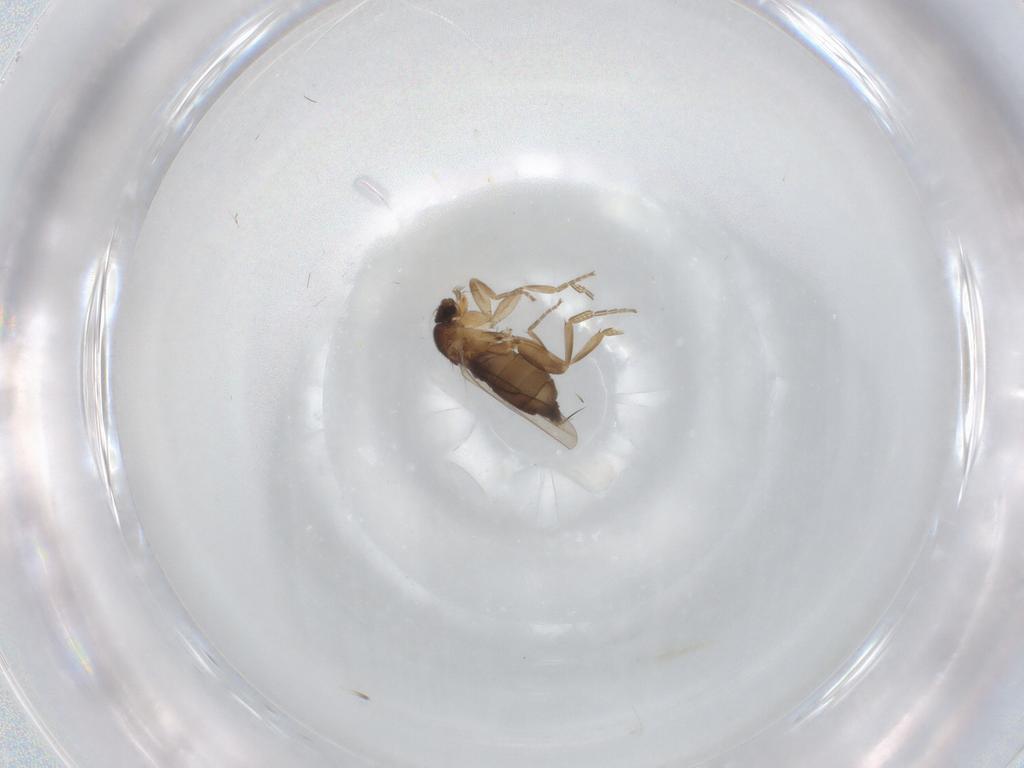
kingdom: Animalia
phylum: Arthropoda
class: Insecta
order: Diptera
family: Phoridae
